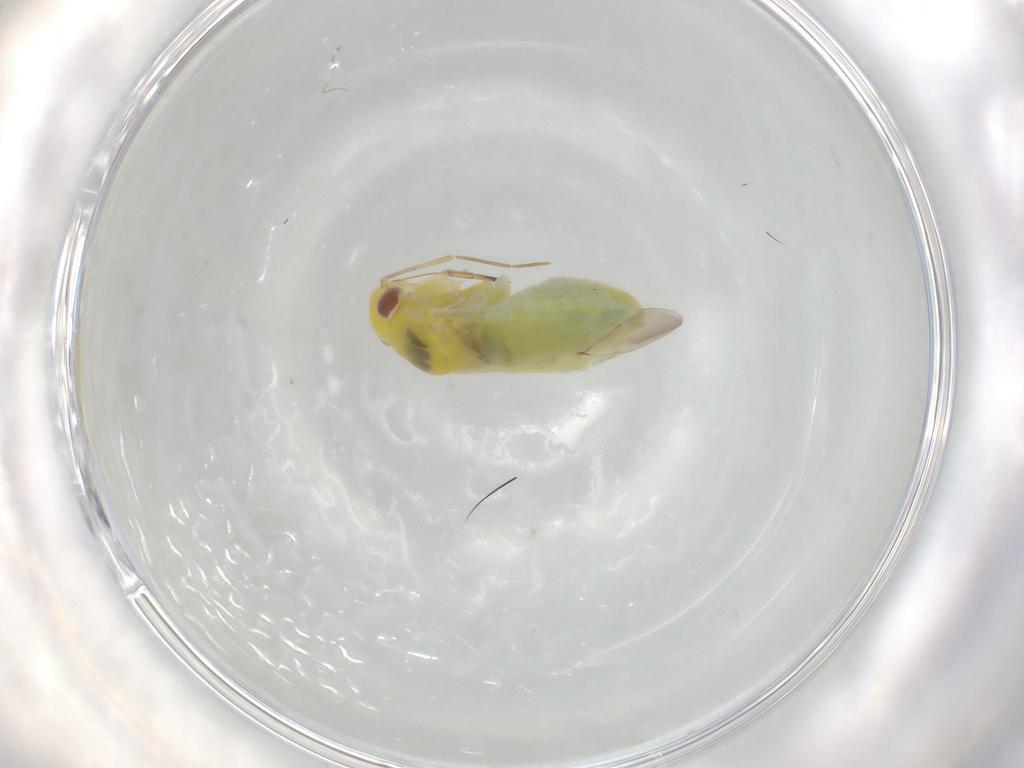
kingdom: Animalia
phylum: Arthropoda
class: Insecta
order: Hemiptera
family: Miridae
